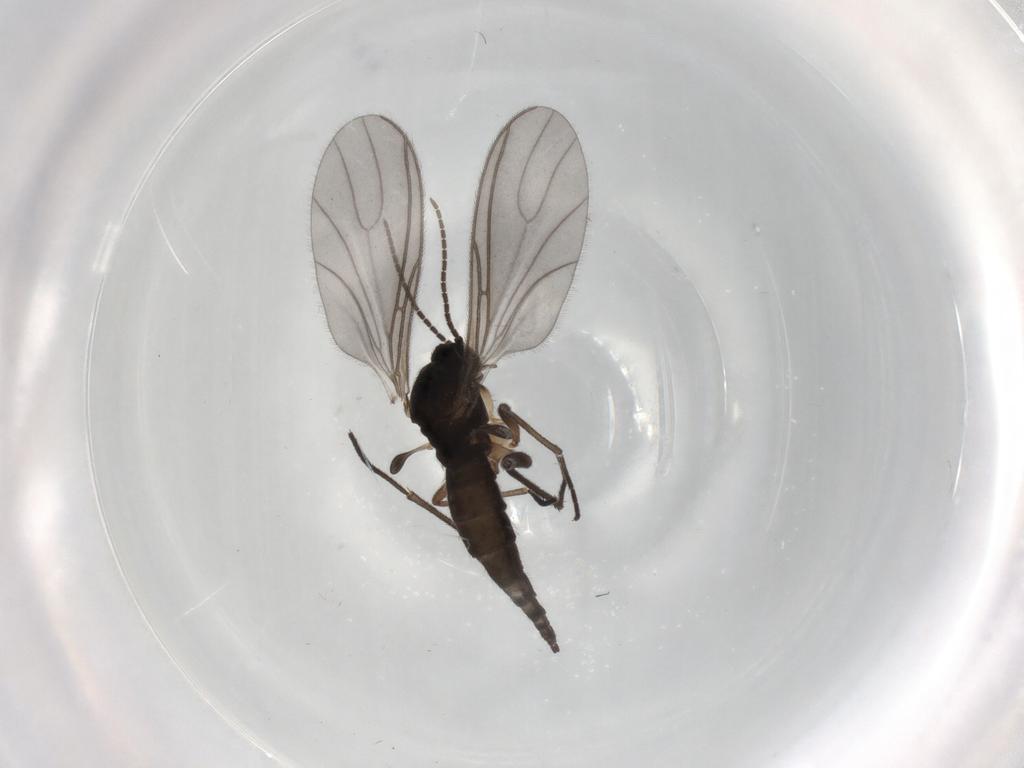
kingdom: Animalia
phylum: Arthropoda
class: Insecta
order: Diptera
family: Sciaridae
